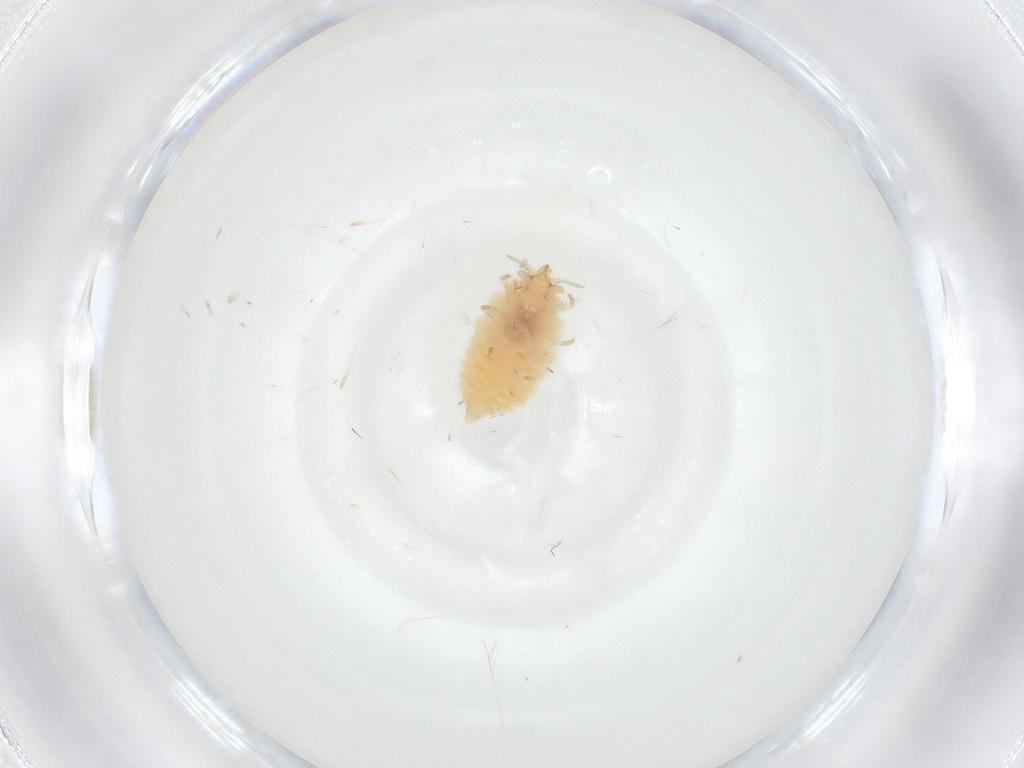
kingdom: Animalia
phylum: Arthropoda
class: Insecta
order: Neuroptera
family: Coniopterygidae
